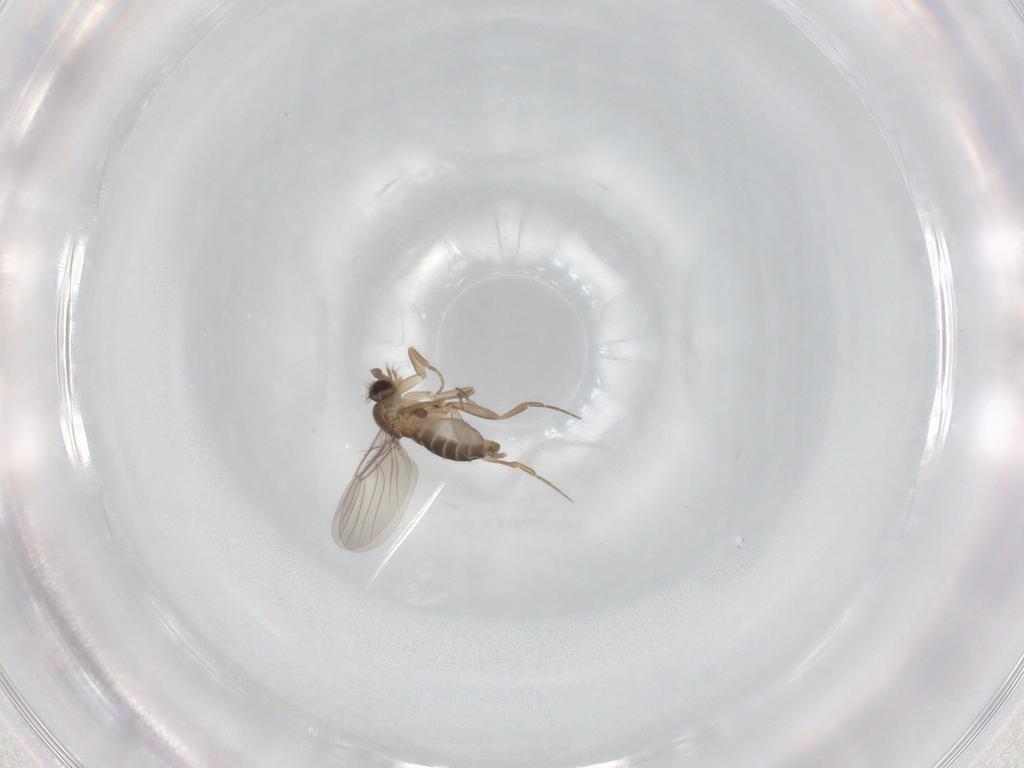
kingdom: Animalia
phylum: Arthropoda
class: Insecta
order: Diptera
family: Phoridae
